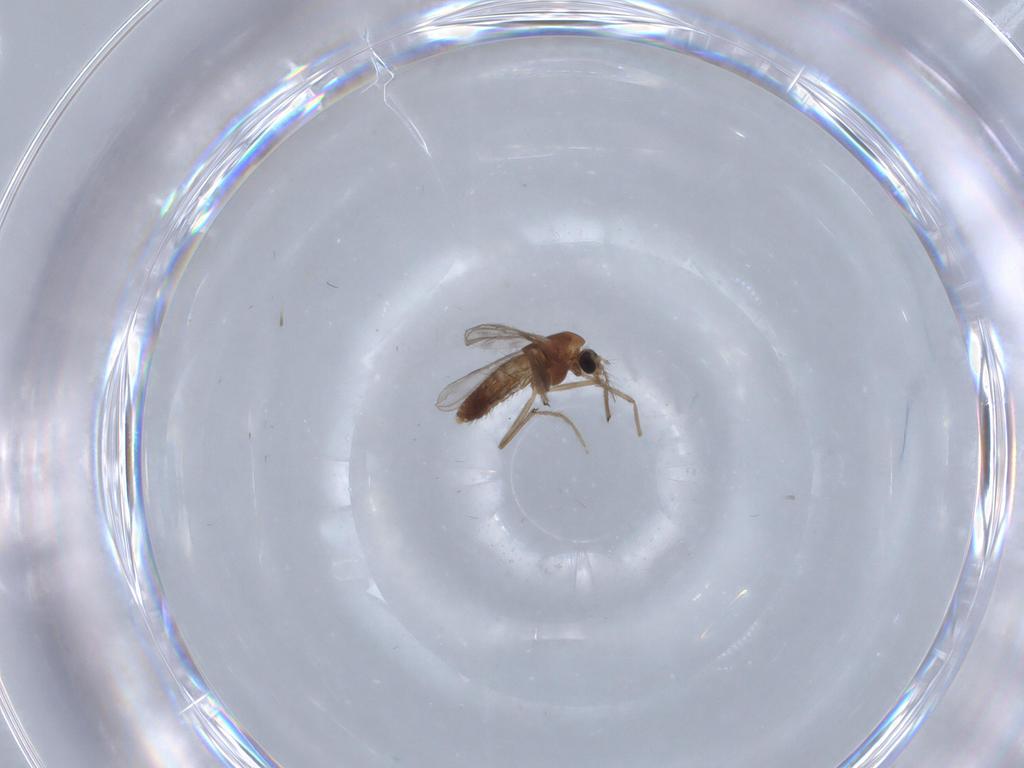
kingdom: Animalia
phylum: Arthropoda
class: Insecta
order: Diptera
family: Chironomidae
